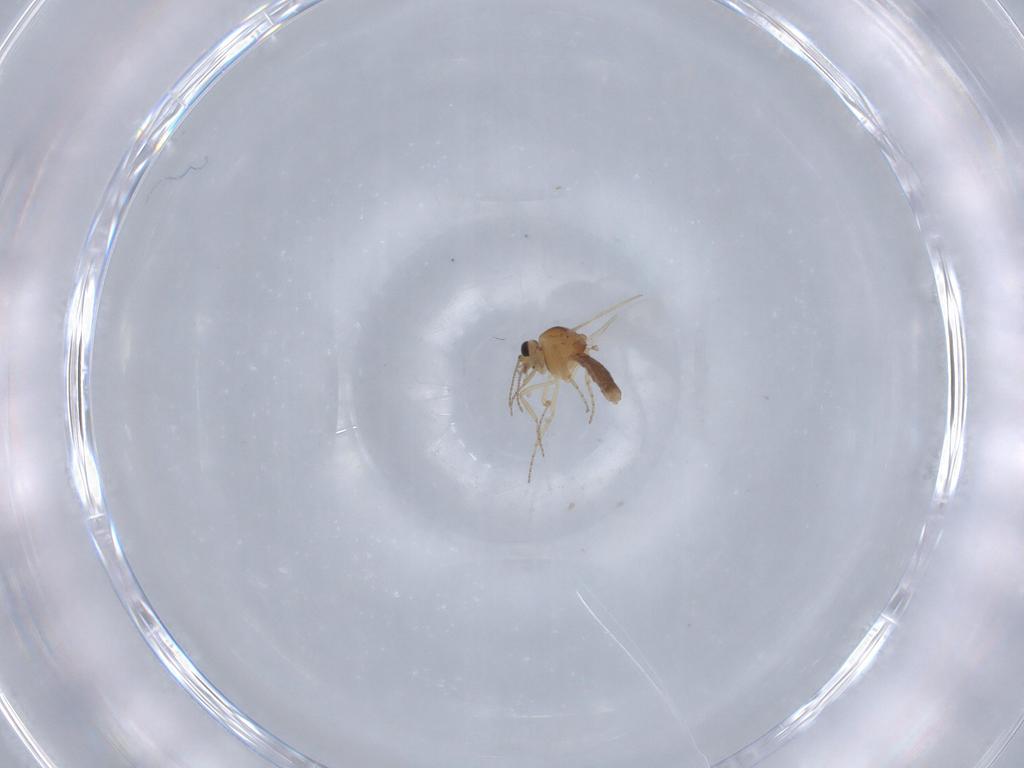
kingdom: Animalia
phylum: Arthropoda
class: Insecta
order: Diptera
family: Ceratopogonidae
